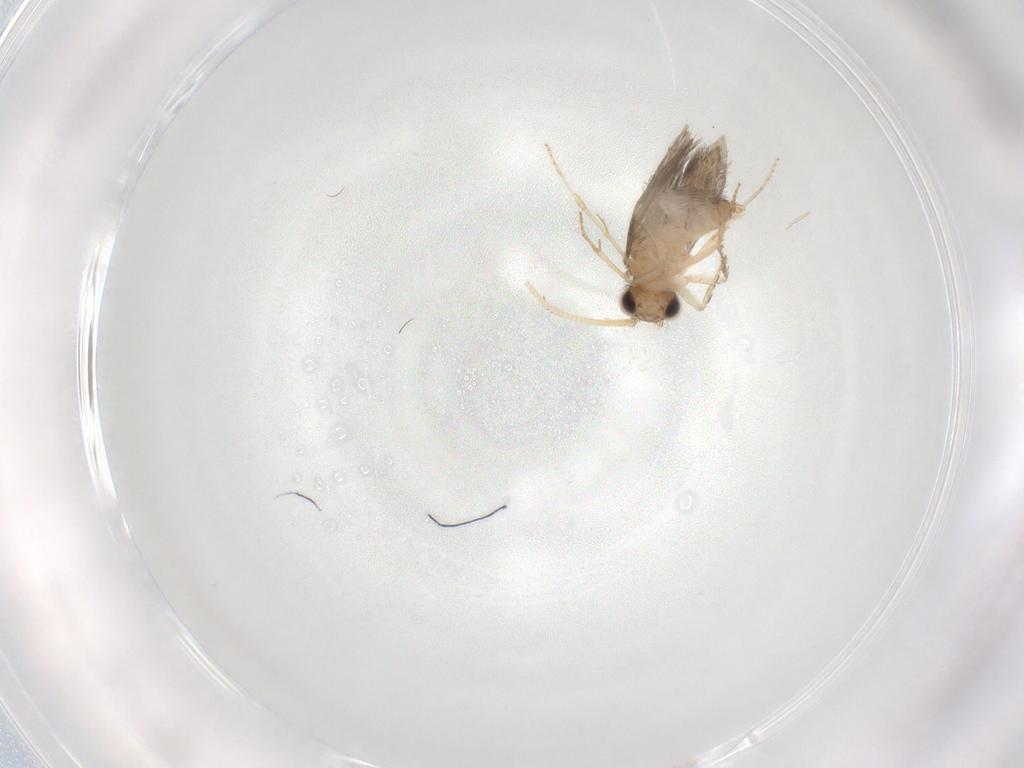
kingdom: Animalia
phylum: Arthropoda
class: Insecta
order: Trichoptera
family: Hydroptilidae
